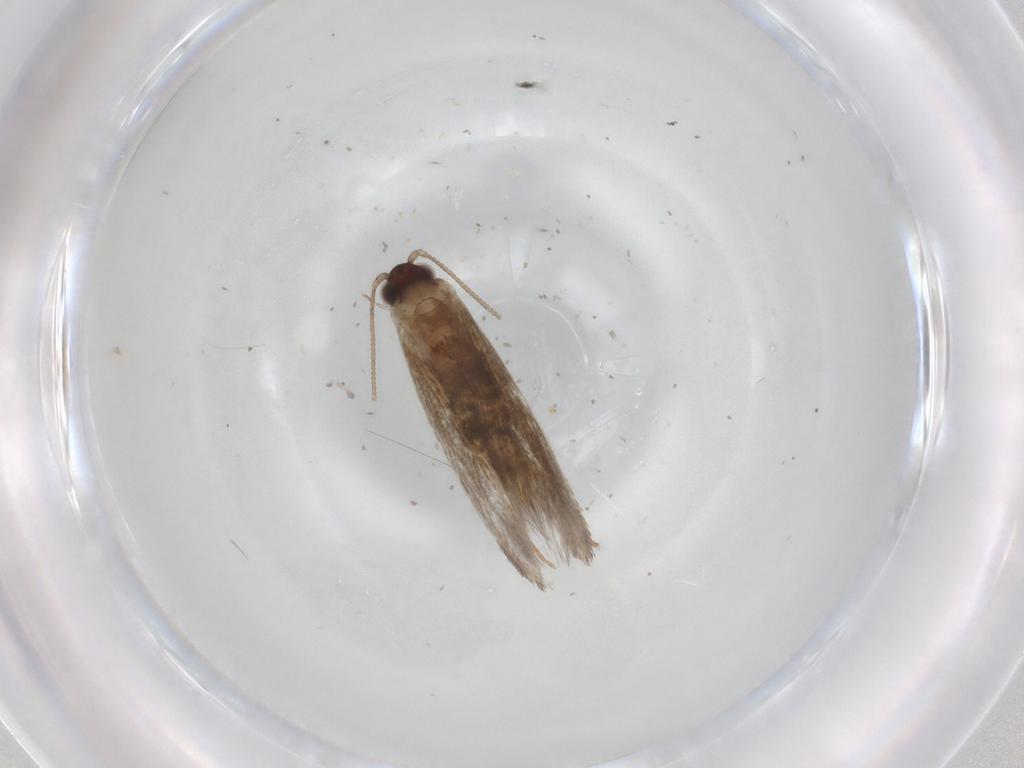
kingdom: Animalia
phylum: Arthropoda
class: Insecta
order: Lepidoptera
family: Tineidae
